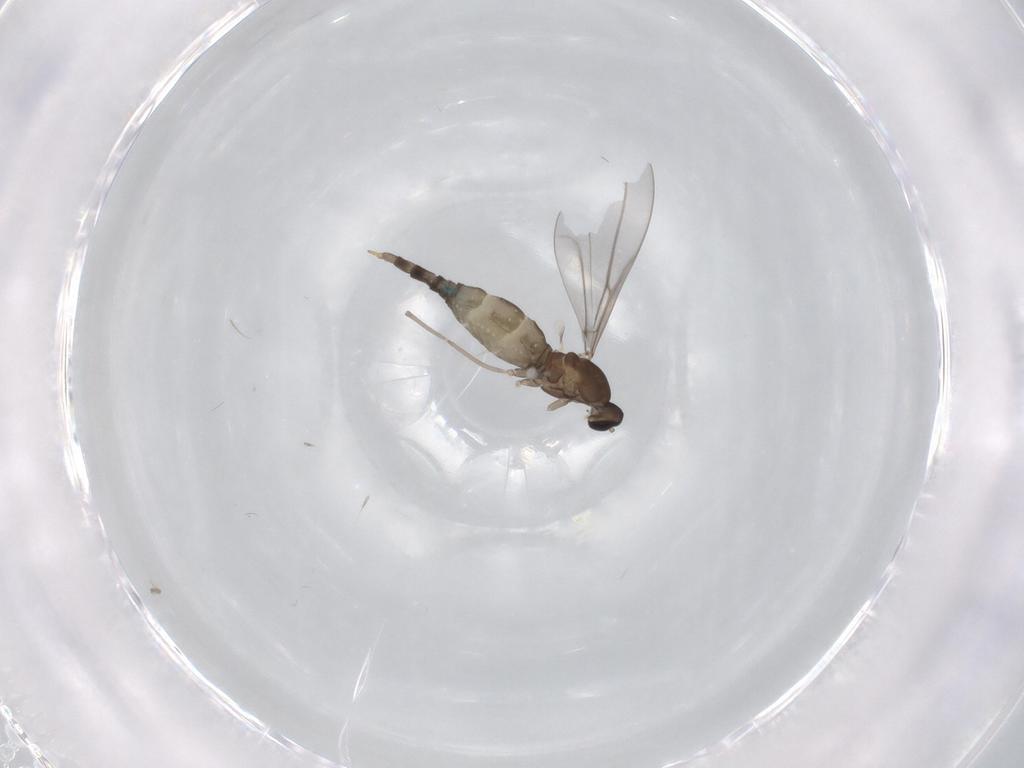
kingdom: Animalia
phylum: Arthropoda
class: Insecta
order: Diptera
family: Cecidomyiidae
